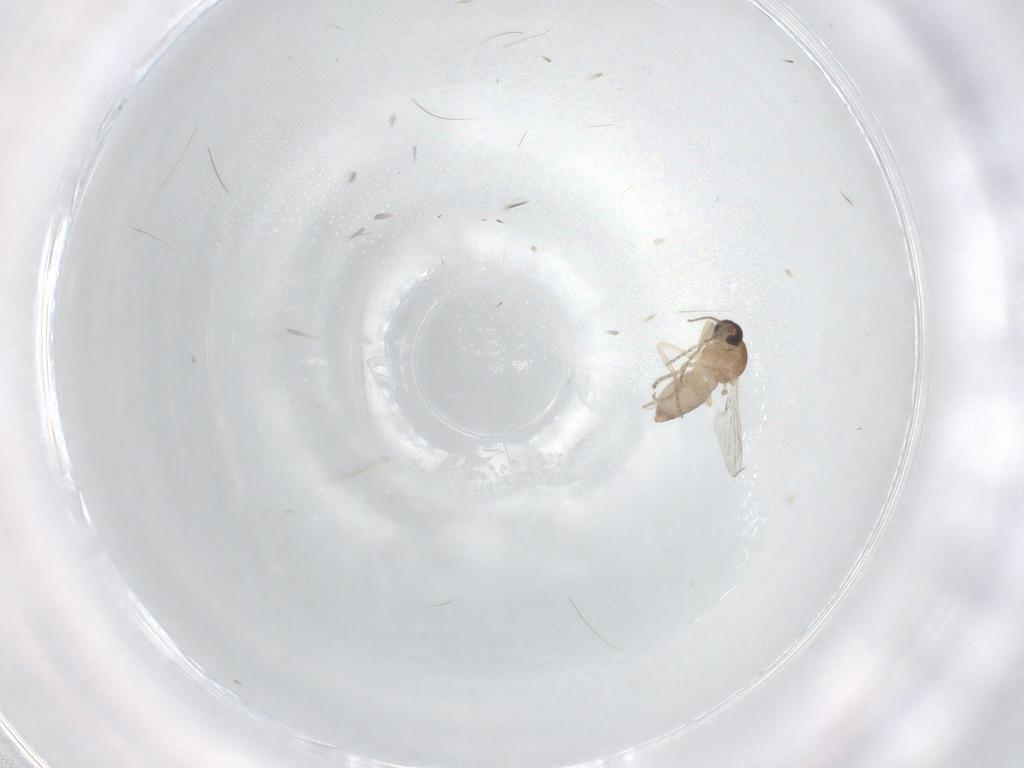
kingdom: Animalia
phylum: Arthropoda
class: Insecta
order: Diptera
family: Ceratopogonidae
